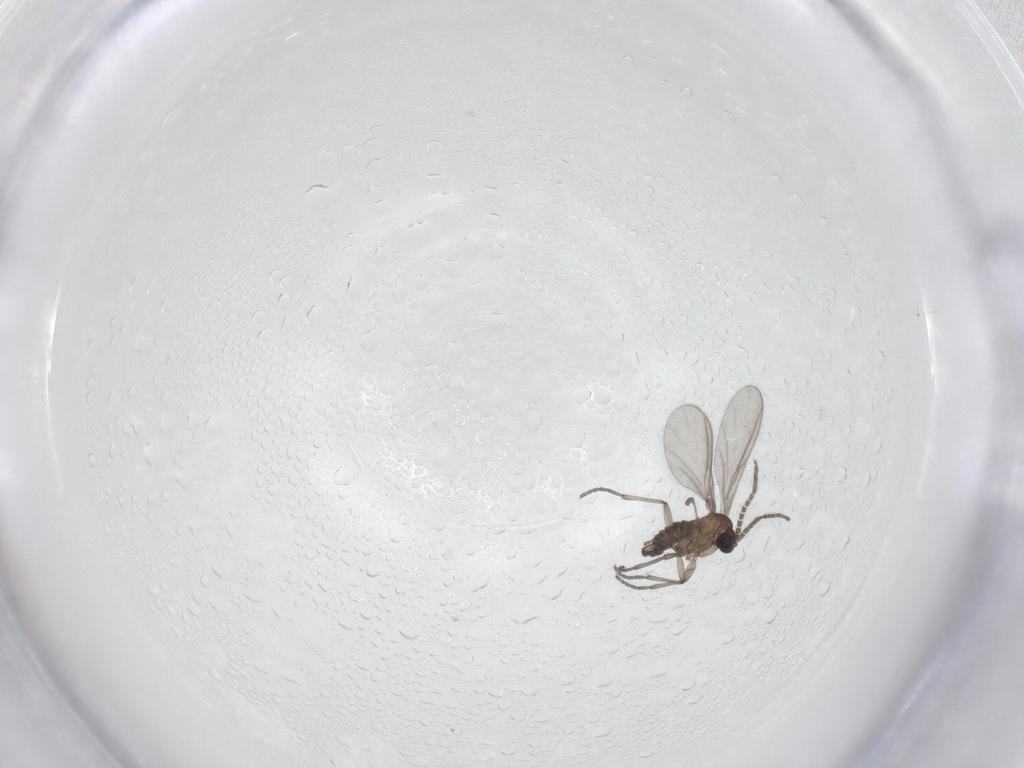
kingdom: Animalia
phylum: Arthropoda
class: Insecta
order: Diptera
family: Sciaridae
